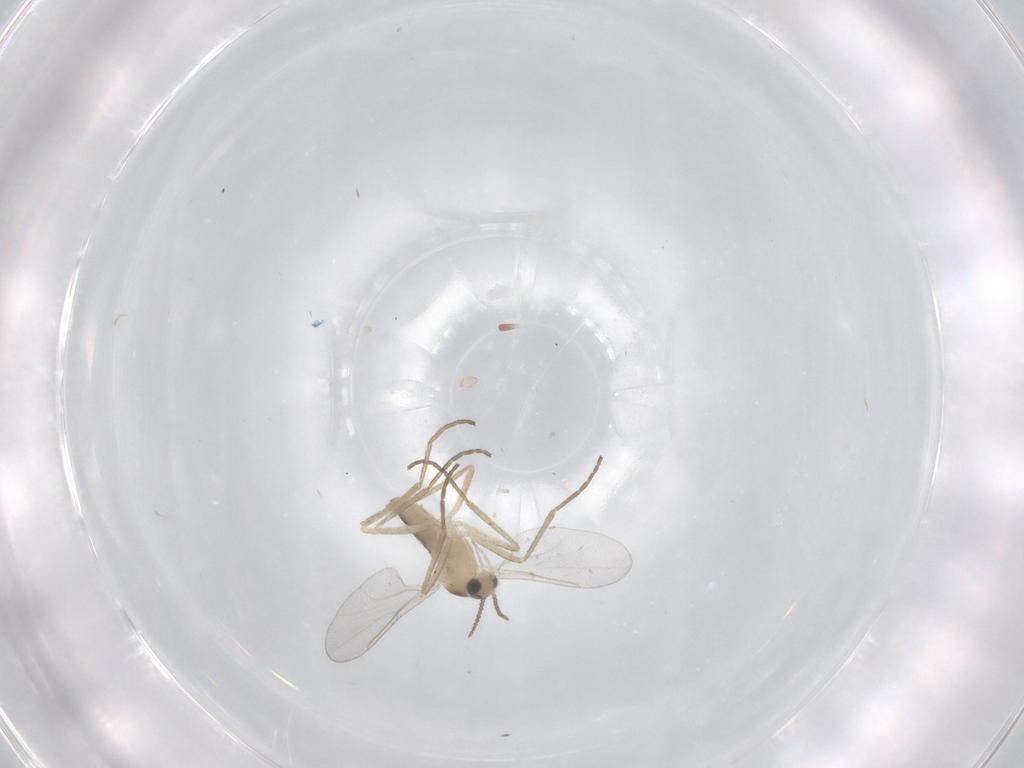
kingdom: Animalia
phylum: Arthropoda
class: Insecta
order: Diptera
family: Cecidomyiidae
